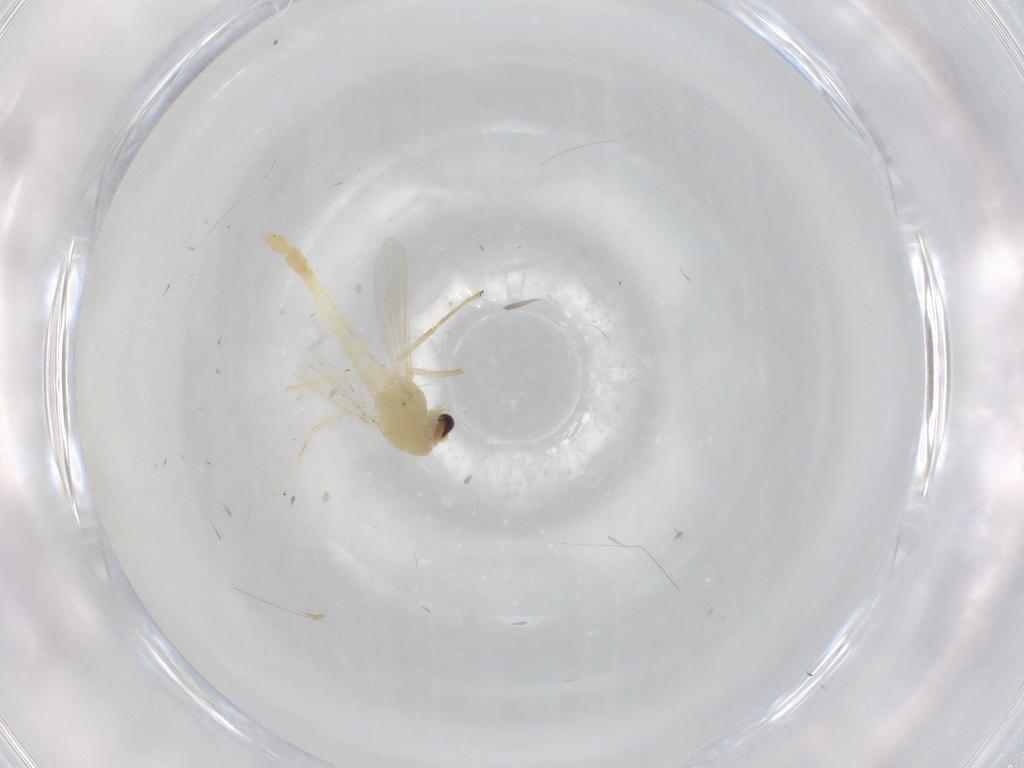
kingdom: Animalia
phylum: Arthropoda
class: Insecta
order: Diptera
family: Chironomidae
